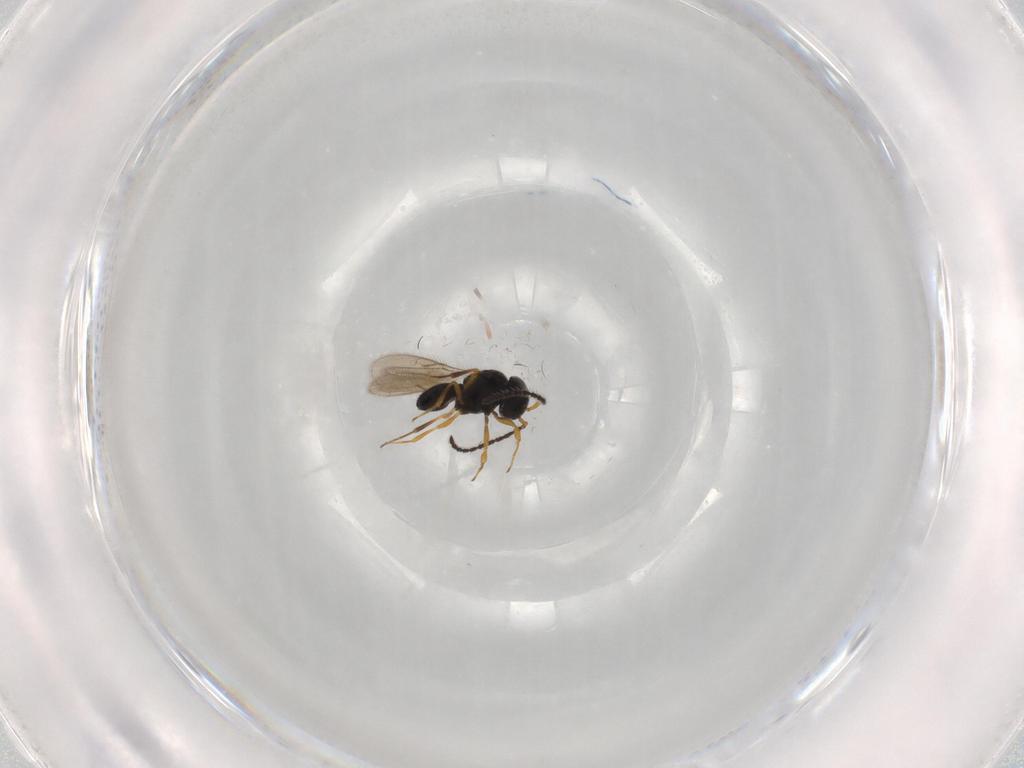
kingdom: Animalia
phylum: Arthropoda
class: Insecta
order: Hymenoptera
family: Scelionidae
